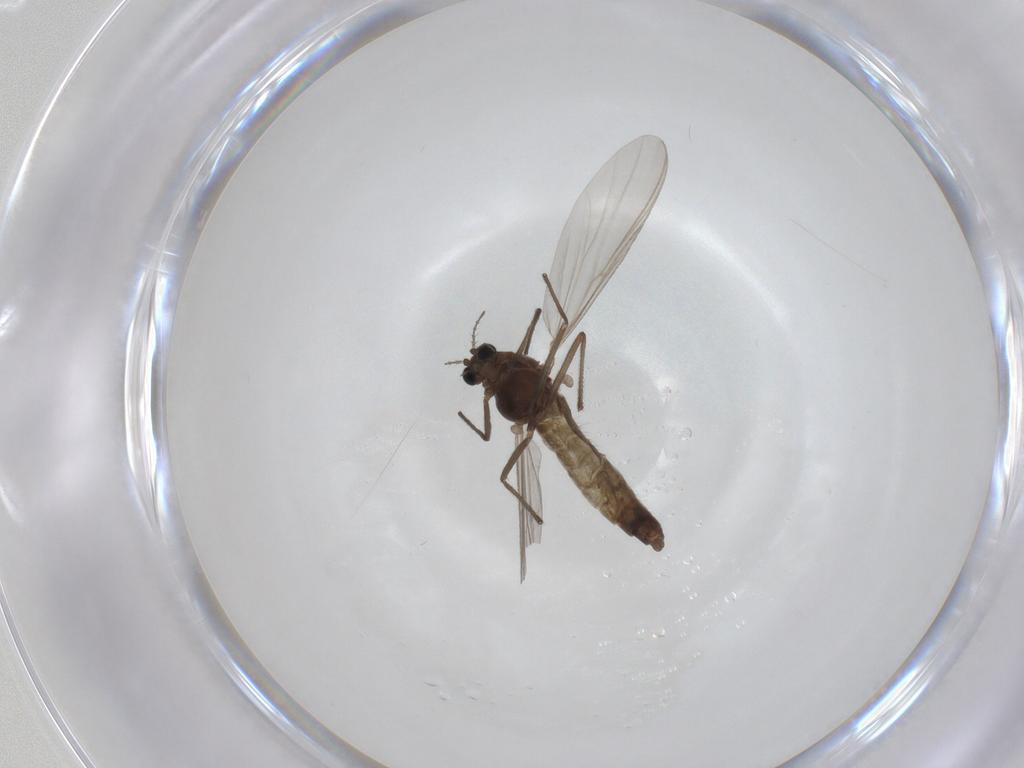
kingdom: Animalia
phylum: Arthropoda
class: Insecta
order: Diptera
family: Chironomidae
